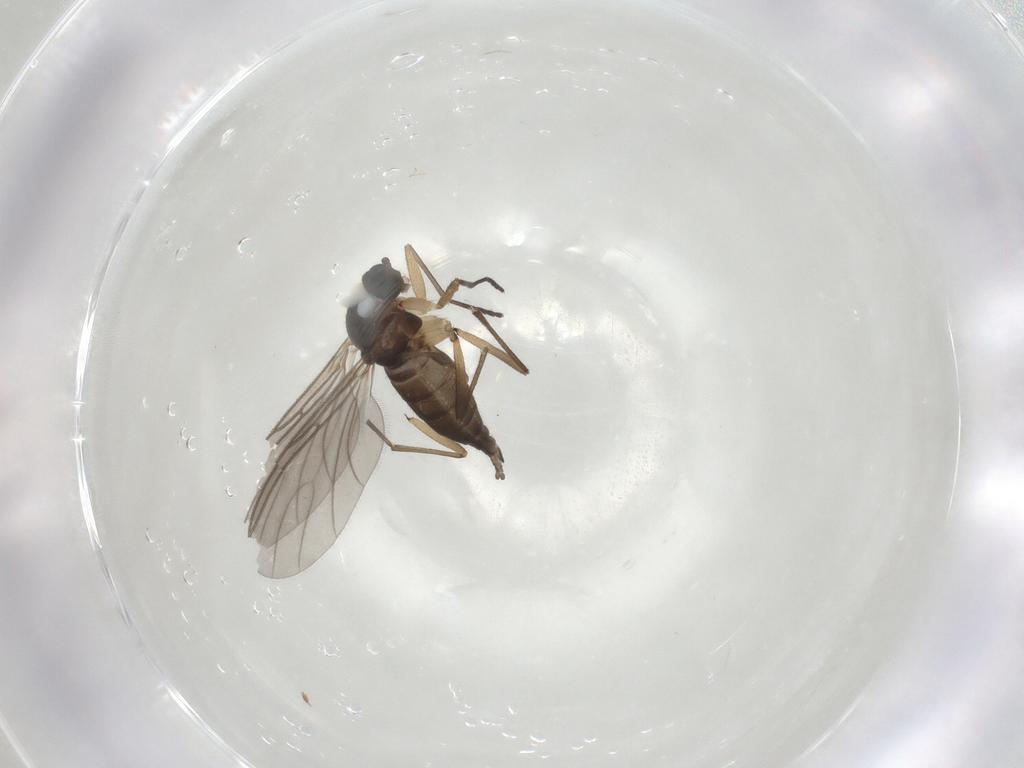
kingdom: Animalia
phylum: Arthropoda
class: Insecta
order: Diptera
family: Sciaridae
